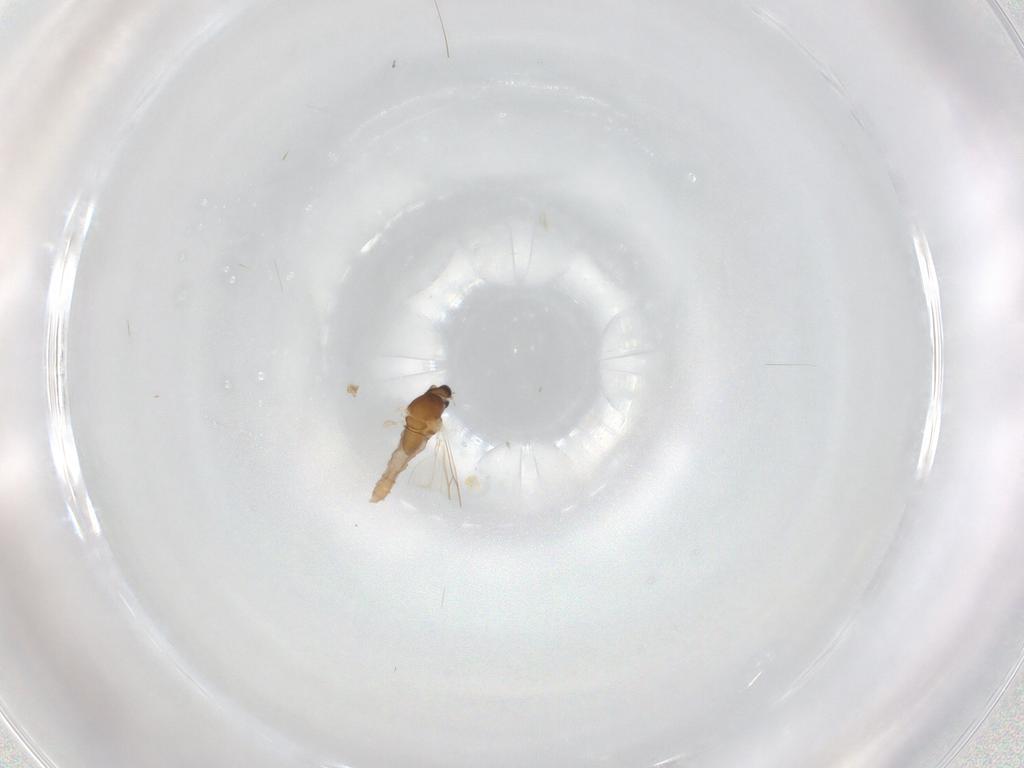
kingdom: Animalia
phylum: Arthropoda
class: Insecta
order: Diptera
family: Cecidomyiidae
